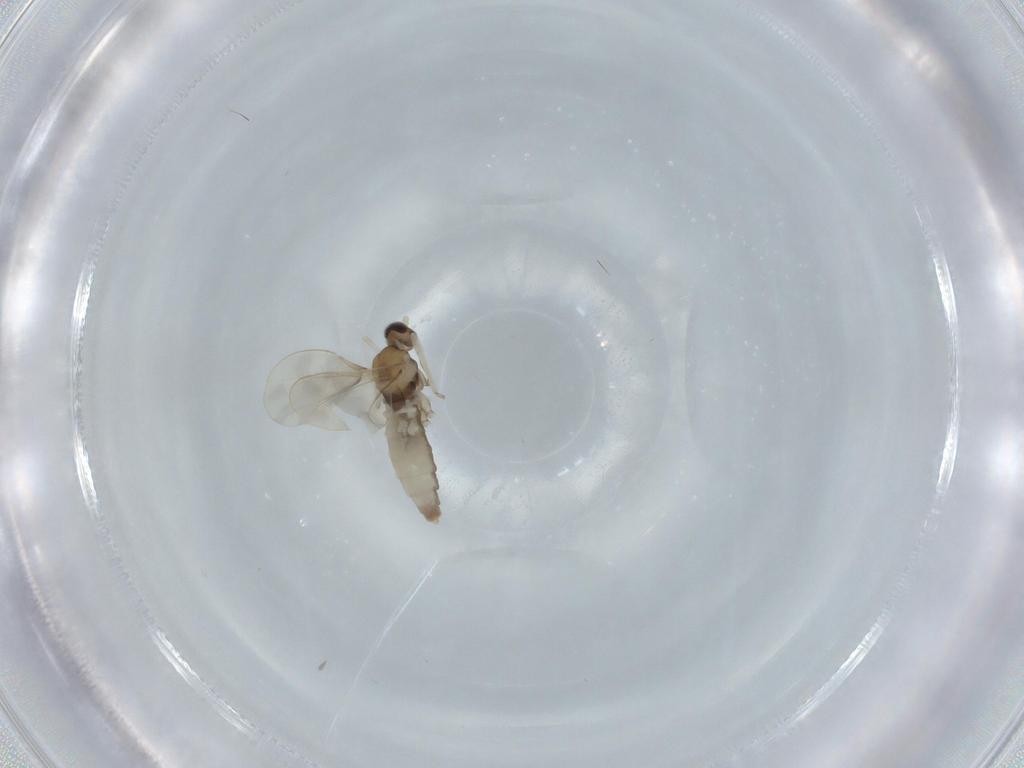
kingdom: Animalia
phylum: Arthropoda
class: Insecta
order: Diptera
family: Cecidomyiidae
